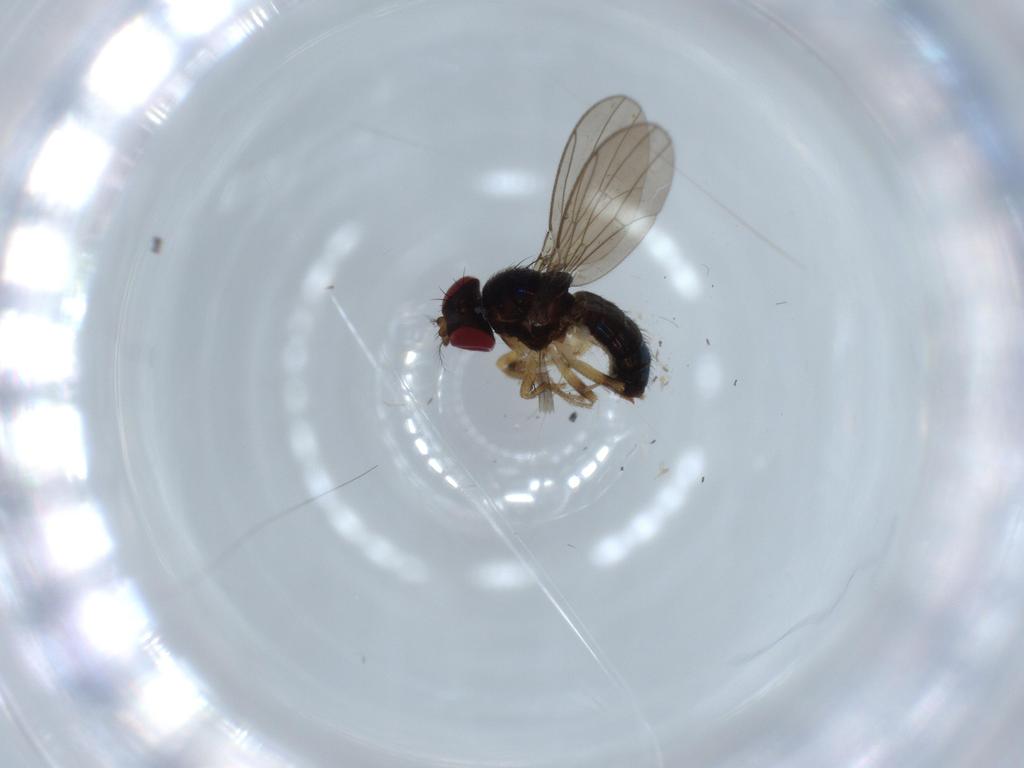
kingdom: Animalia
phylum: Arthropoda
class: Insecta
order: Diptera
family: Drosophilidae
